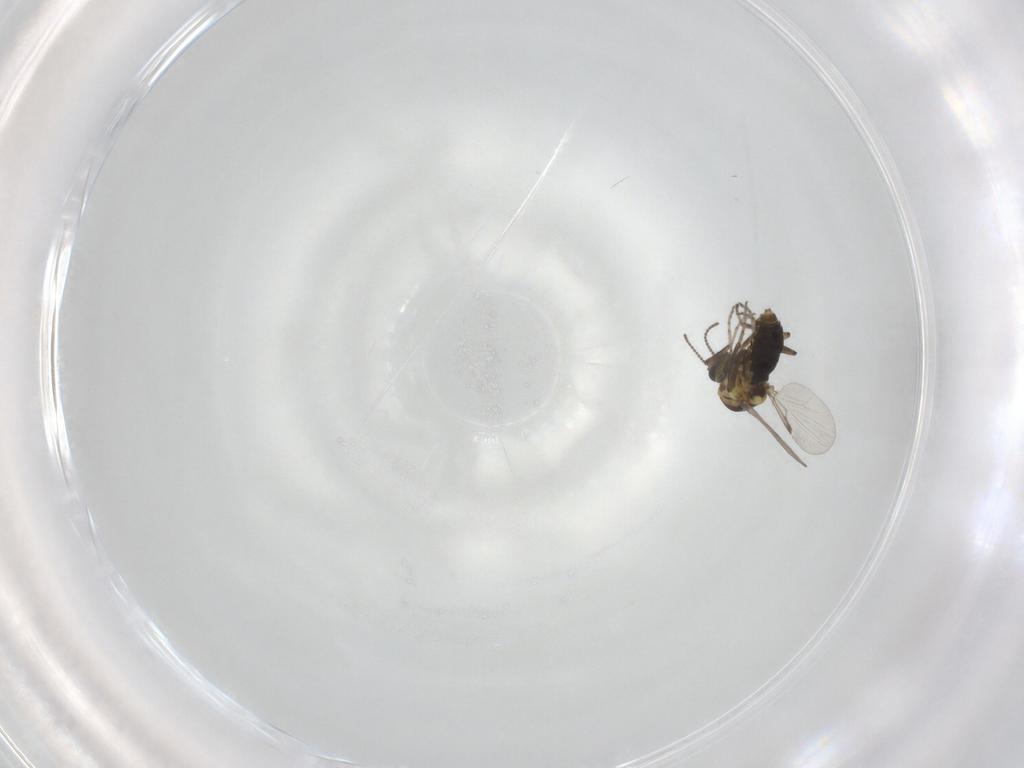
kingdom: Animalia
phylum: Arthropoda
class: Insecta
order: Diptera
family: Ceratopogonidae
